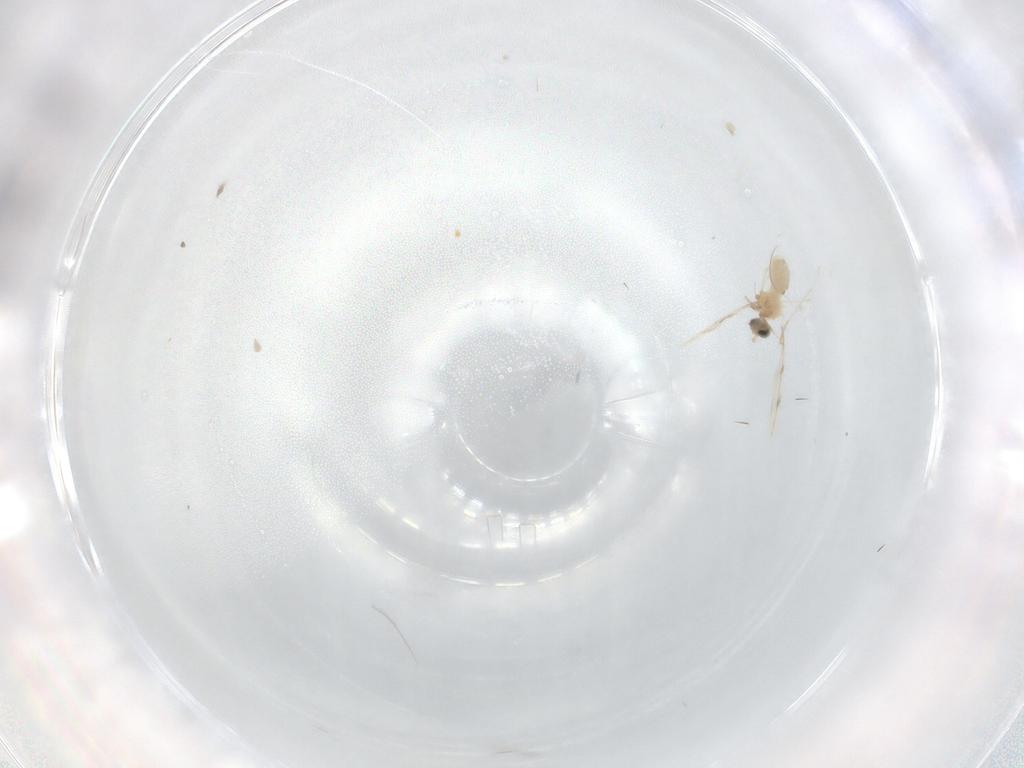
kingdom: Animalia
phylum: Arthropoda
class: Insecta
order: Diptera
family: Cecidomyiidae
